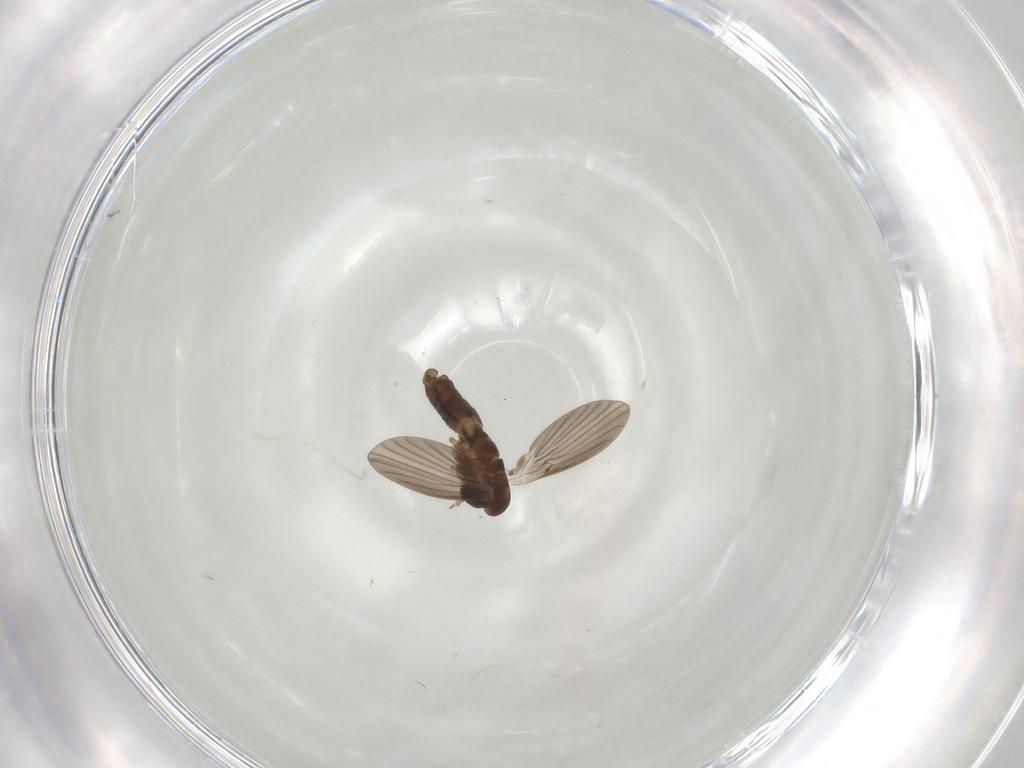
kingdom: Animalia
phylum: Arthropoda
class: Insecta
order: Diptera
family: Psychodidae
